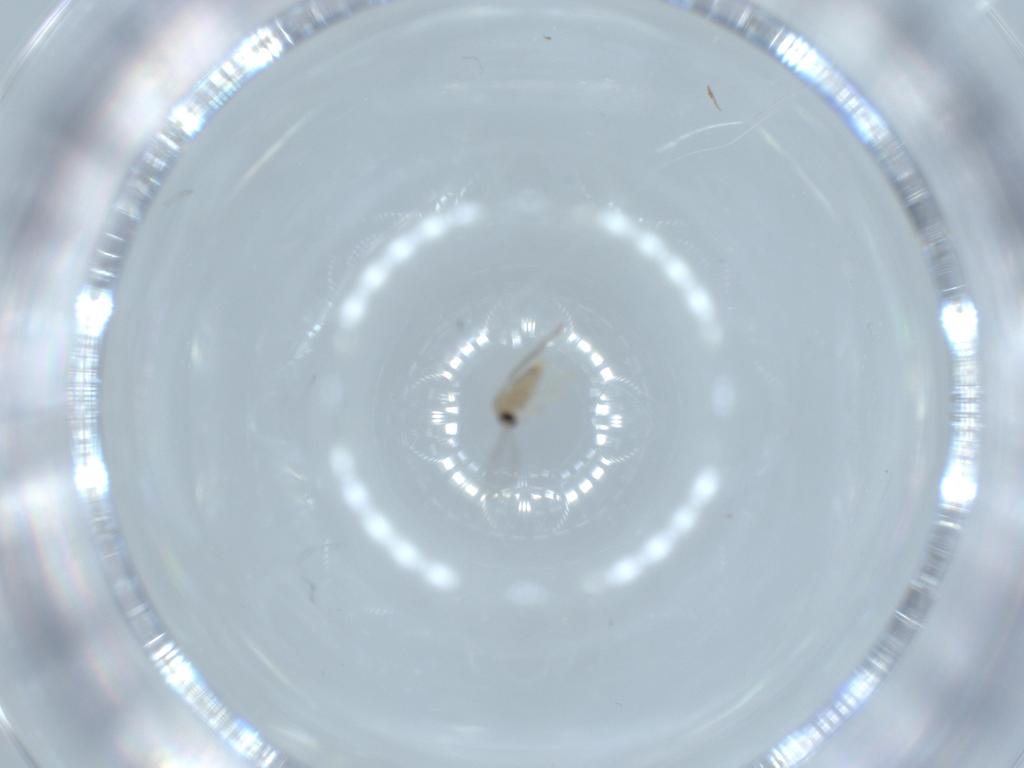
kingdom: Animalia
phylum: Arthropoda
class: Insecta
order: Diptera
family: Cecidomyiidae
